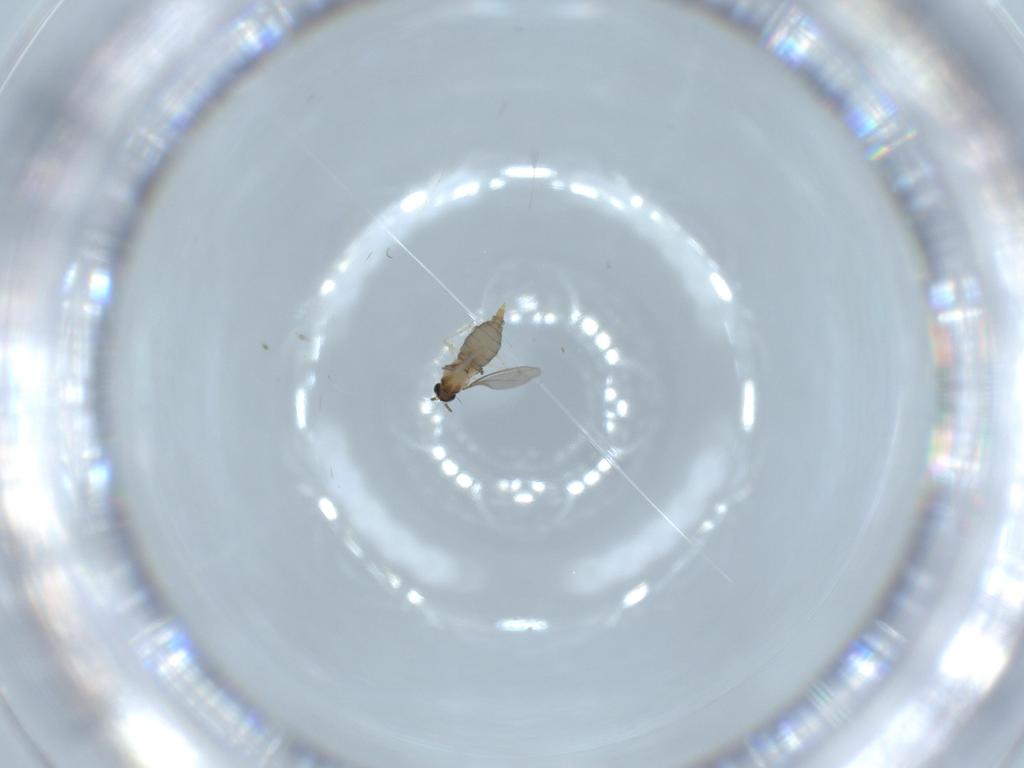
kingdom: Animalia
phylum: Arthropoda
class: Insecta
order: Diptera
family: Cecidomyiidae
